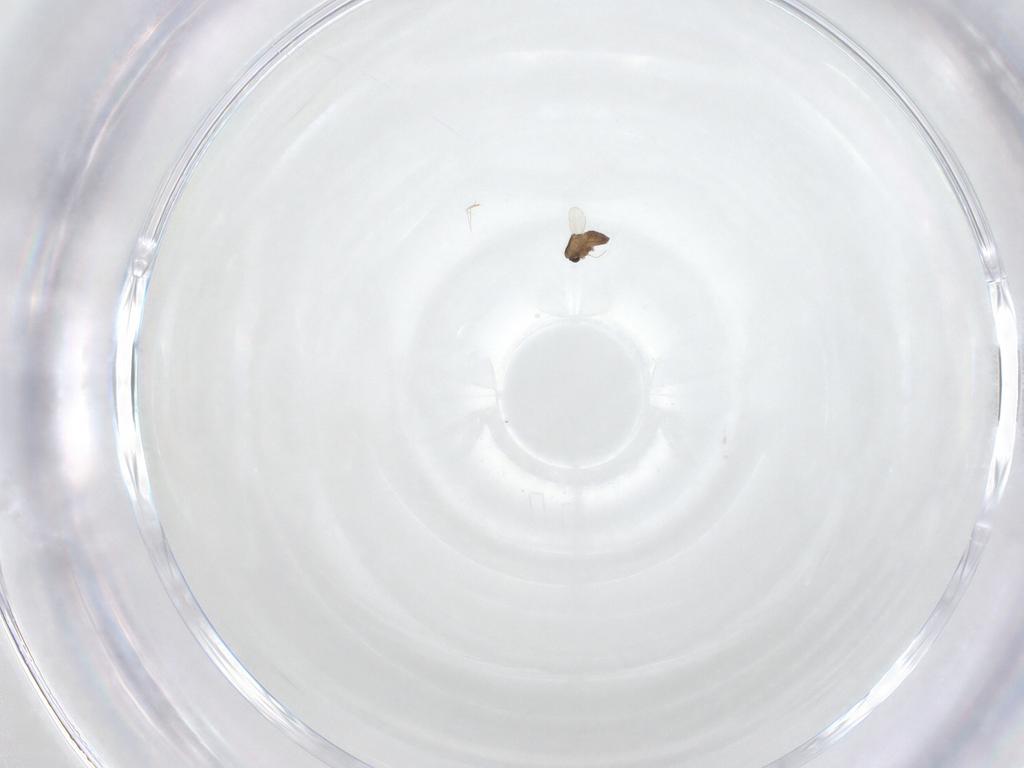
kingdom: Animalia
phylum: Arthropoda
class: Insecta
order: Diptera
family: Chironomidae
